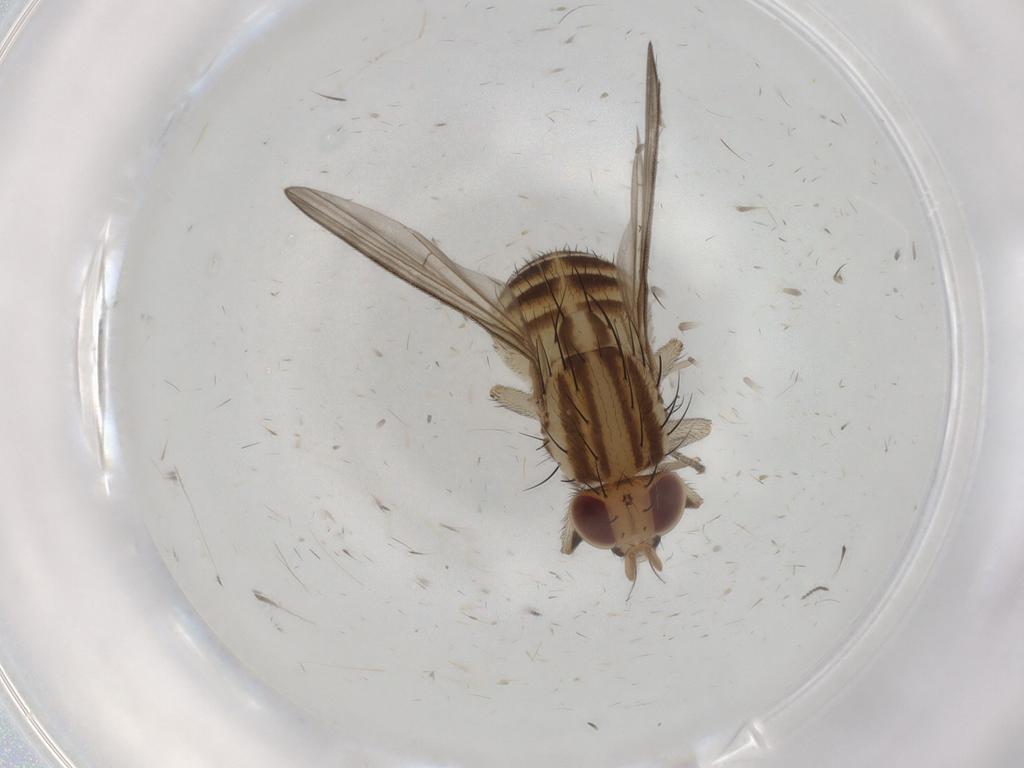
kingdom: Animalia
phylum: Arthropoda
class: Insecta
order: Diptera
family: Lauxaniidae
